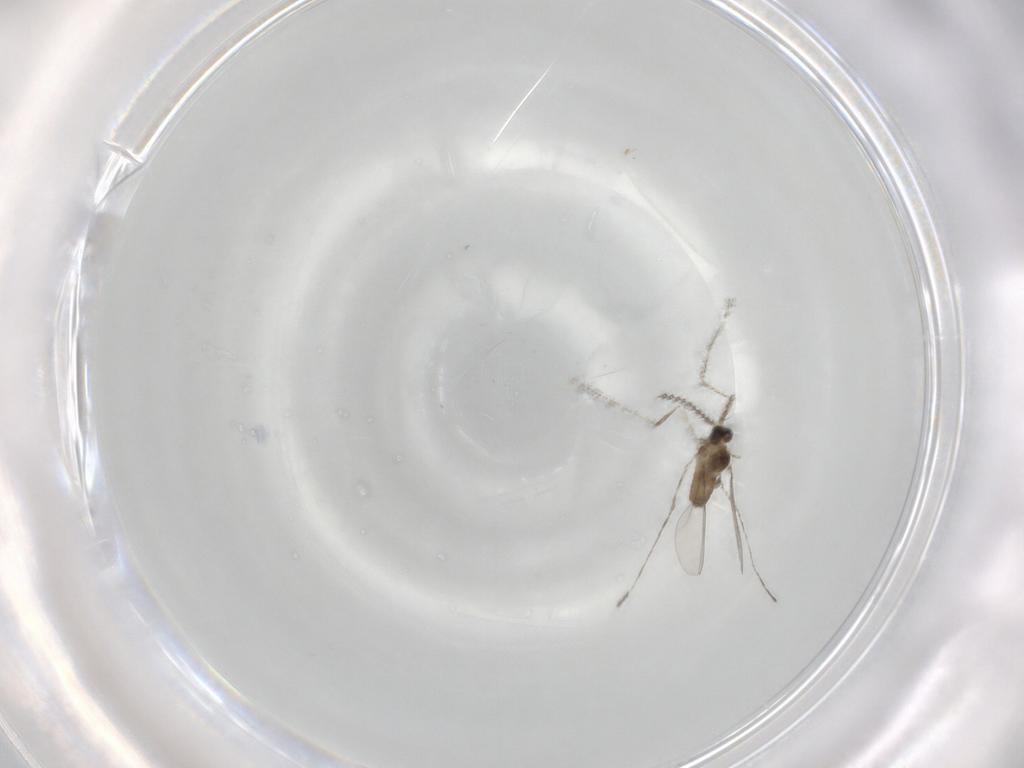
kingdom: Animalia
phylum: Arthropoda
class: Insecta
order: Diptera
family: Cecidomyiidae
